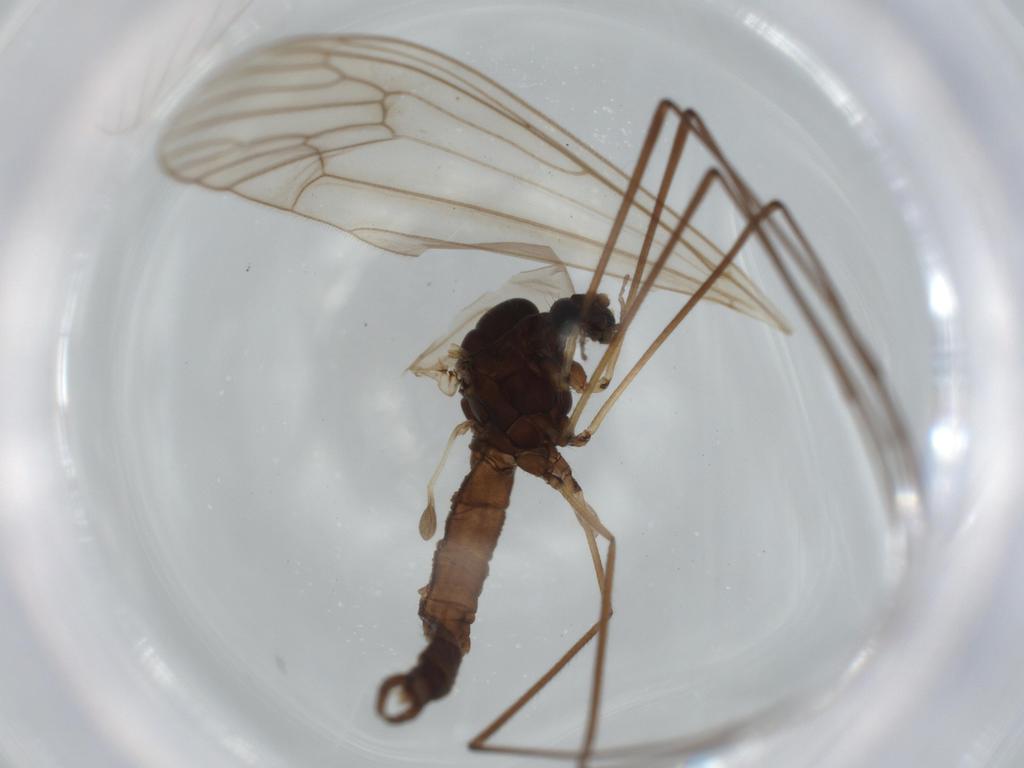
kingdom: Animalia
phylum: Arthropoda
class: Insecta
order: Diptera
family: Chironomidae
